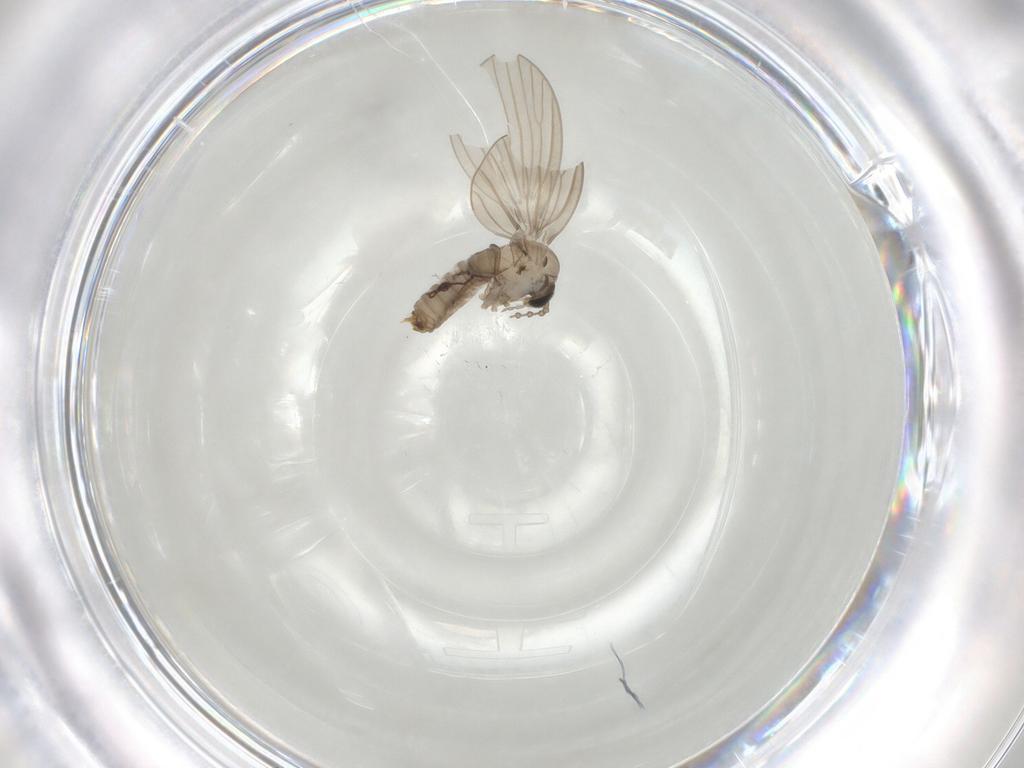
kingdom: Animalia
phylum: Arthropoda
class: Insecta
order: Diptera
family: Psychodidae
